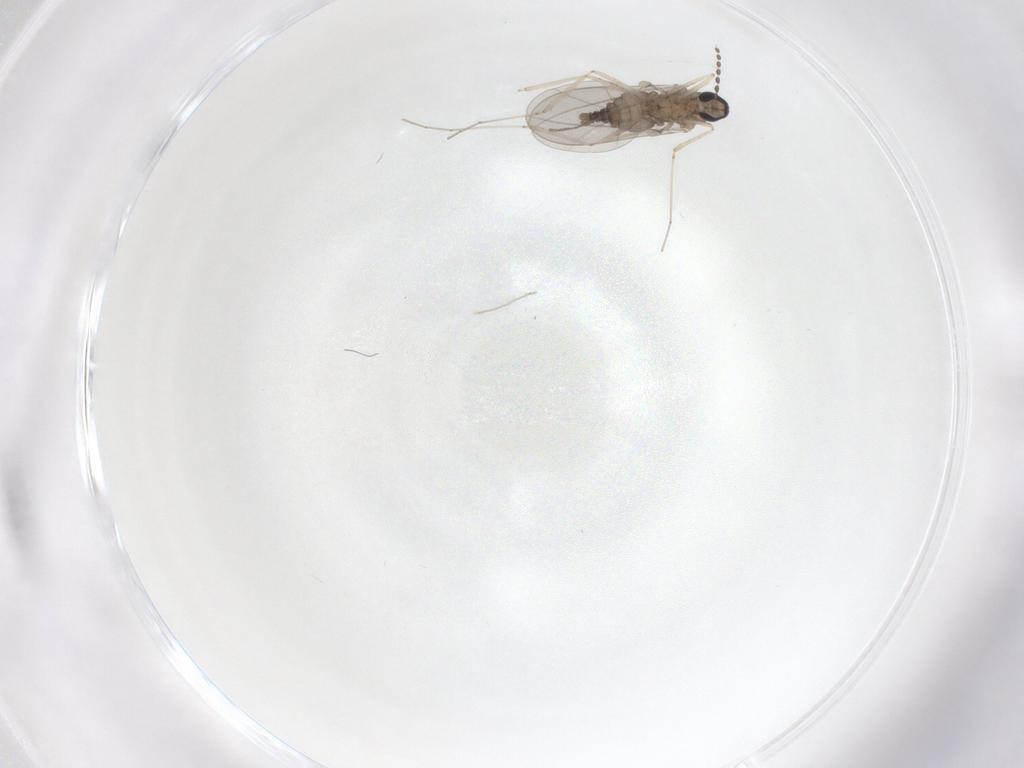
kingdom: Animalia
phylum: Arthropoda
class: Insecta
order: Diptera
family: Cecidomyiidae
